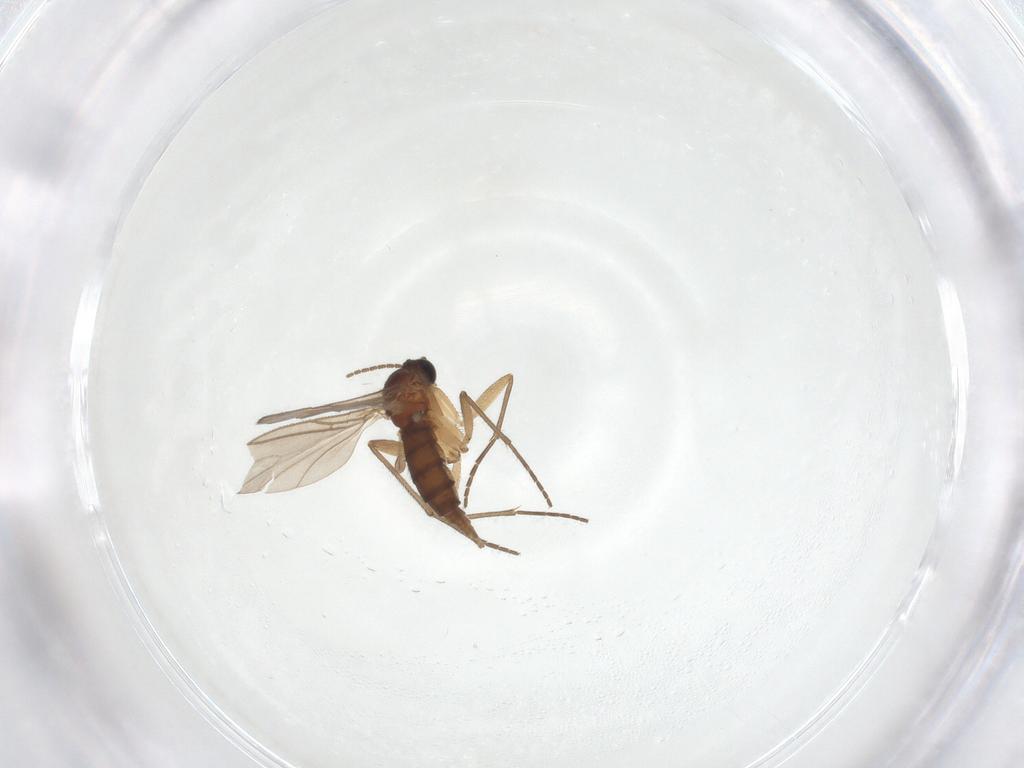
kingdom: Animalia
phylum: Arthropoda
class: Insecta
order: Diptera
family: Sciaridae
